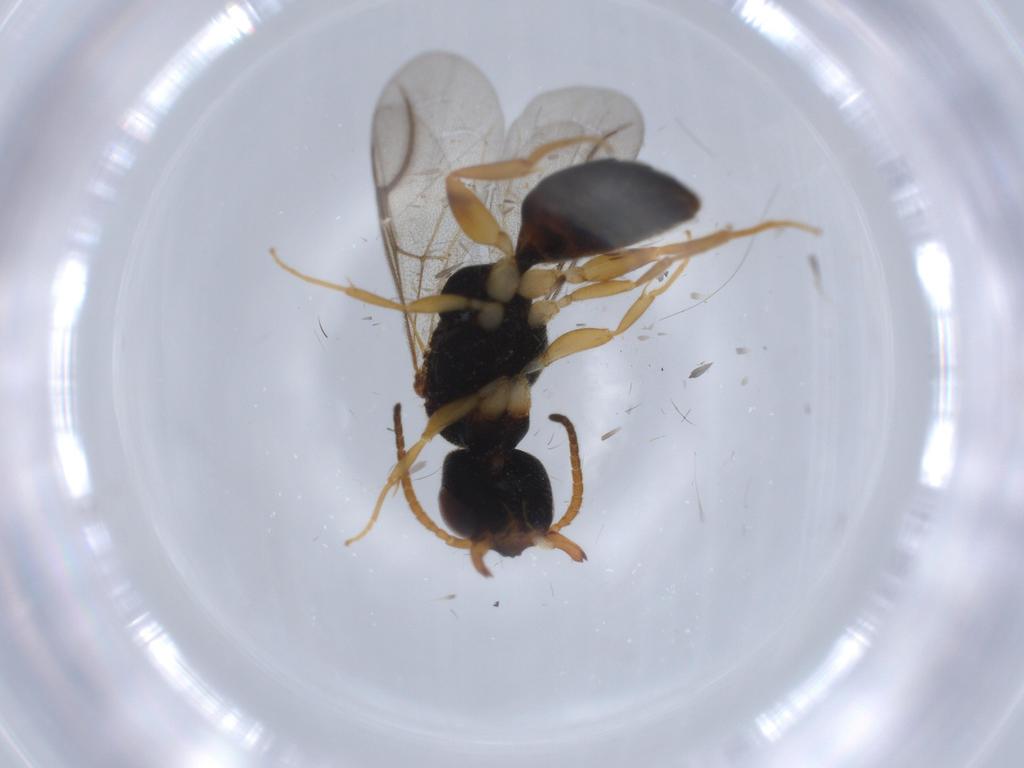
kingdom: Animalia
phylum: Arthropoda
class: Insecta
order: Hymenoptera
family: Bethylidae
